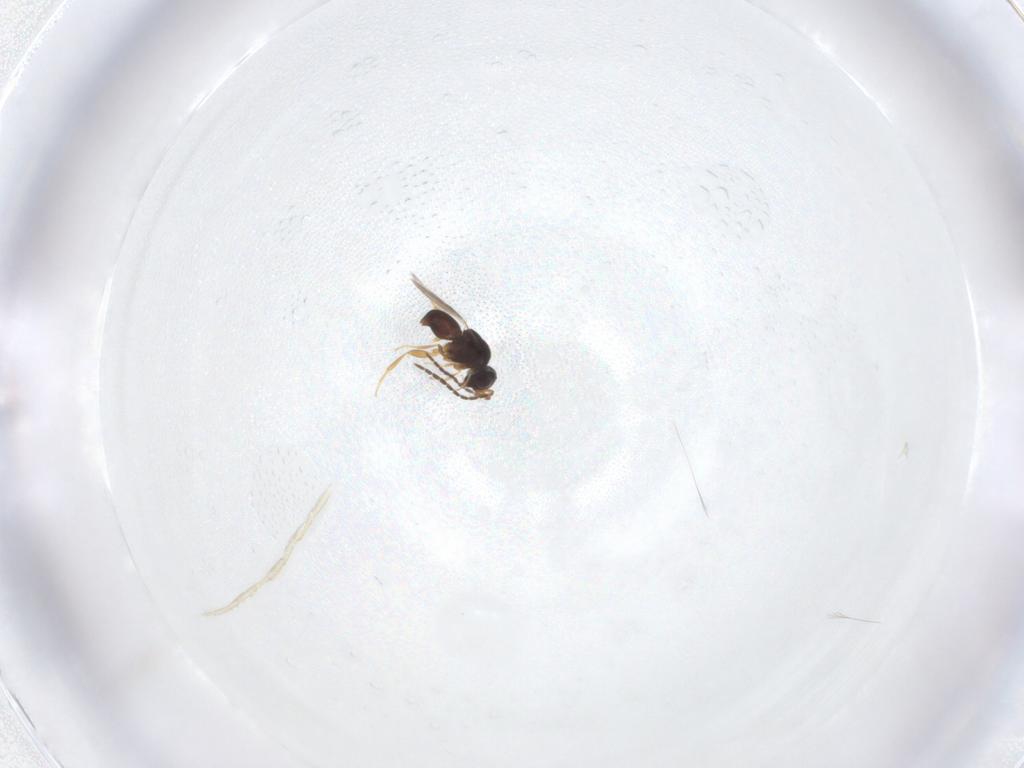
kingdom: Animalia
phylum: Arthropoda
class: Insecta
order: Hymenoptera
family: Ceraphronidae
